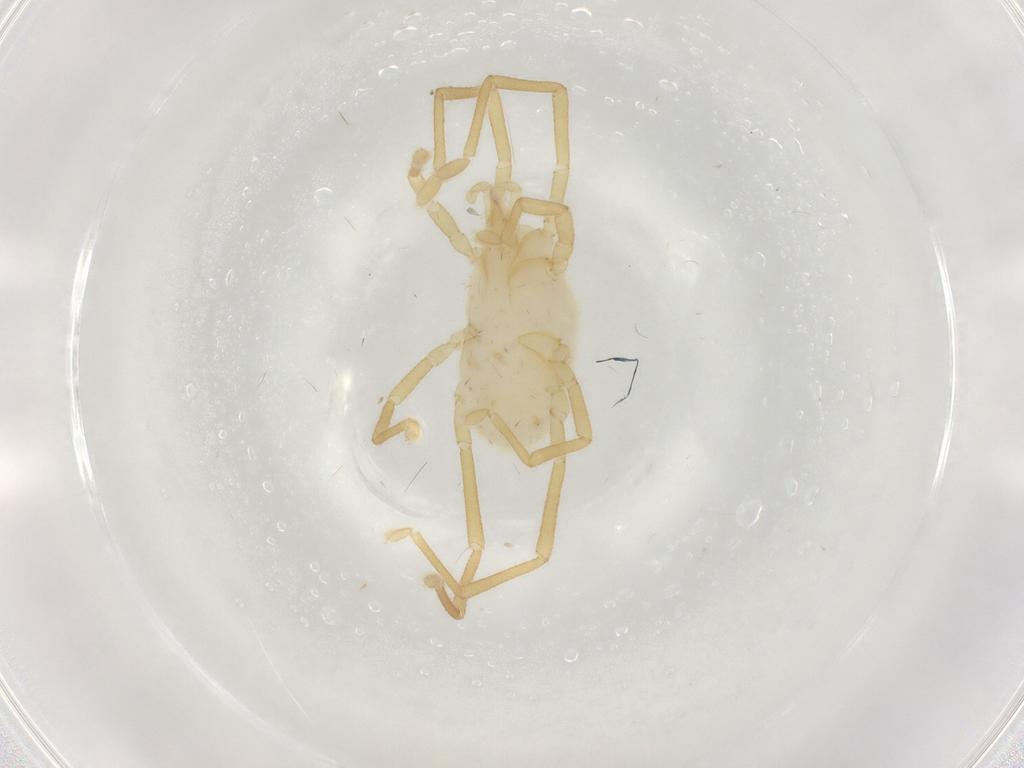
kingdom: Animalia
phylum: Arthropoda
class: Arachnida
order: Trombidiformes
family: Erythraeidae
